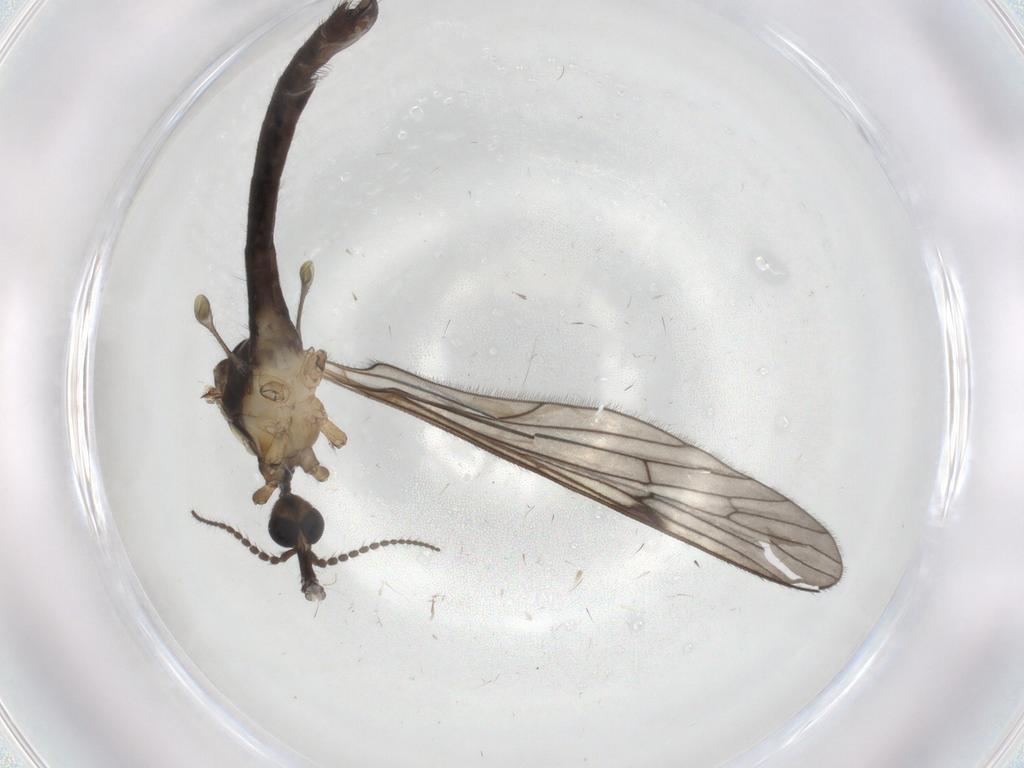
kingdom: Animalia
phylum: Arthropoda
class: Insecta
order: Diptera
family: Limoniidae
